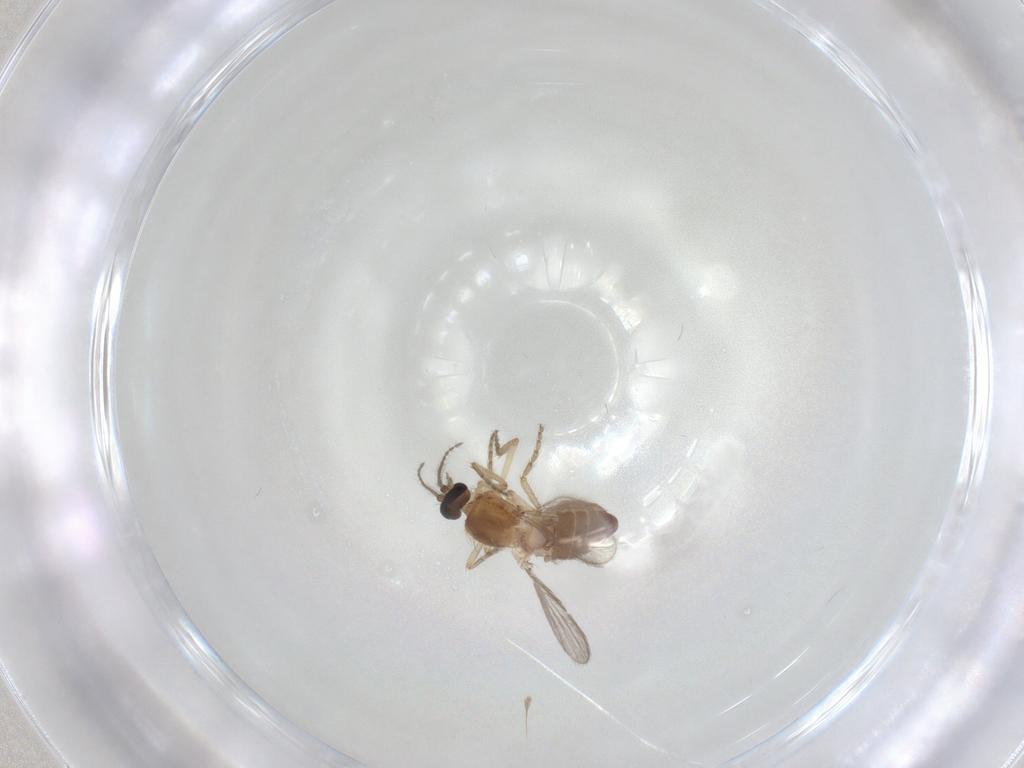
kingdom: Animalia
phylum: Arthropoda
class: Insecta
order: Diptera
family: Ceratopogonidae
